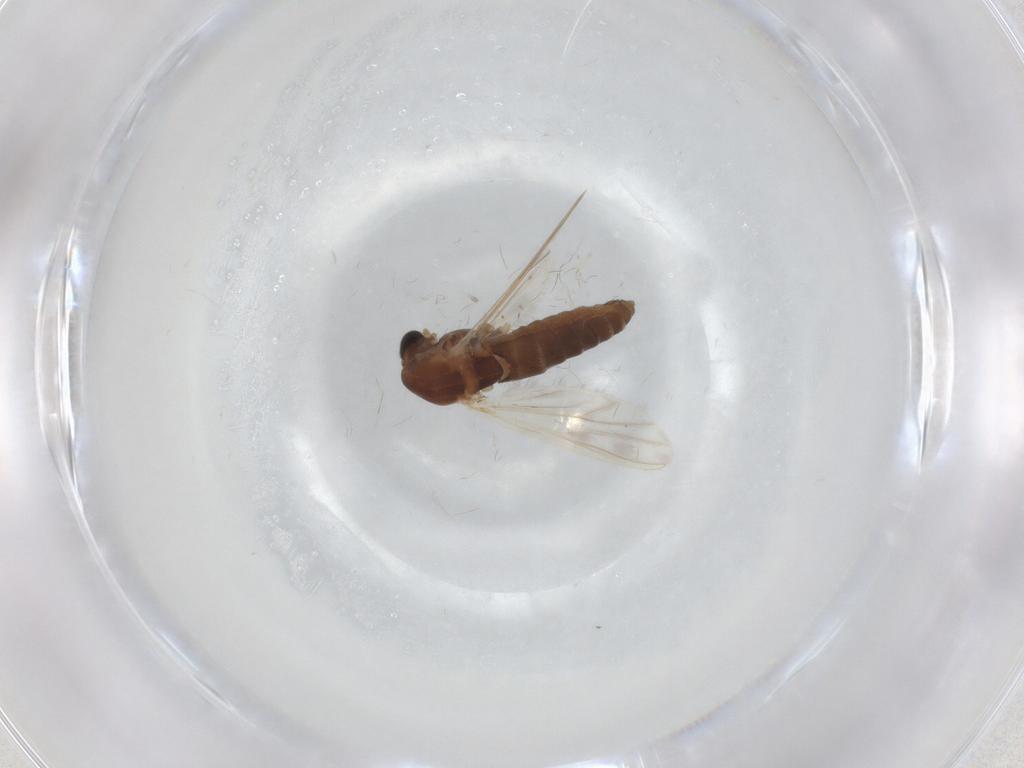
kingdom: Animalia
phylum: Arthropoda
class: Insecta
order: Diptera
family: Chironomidae
